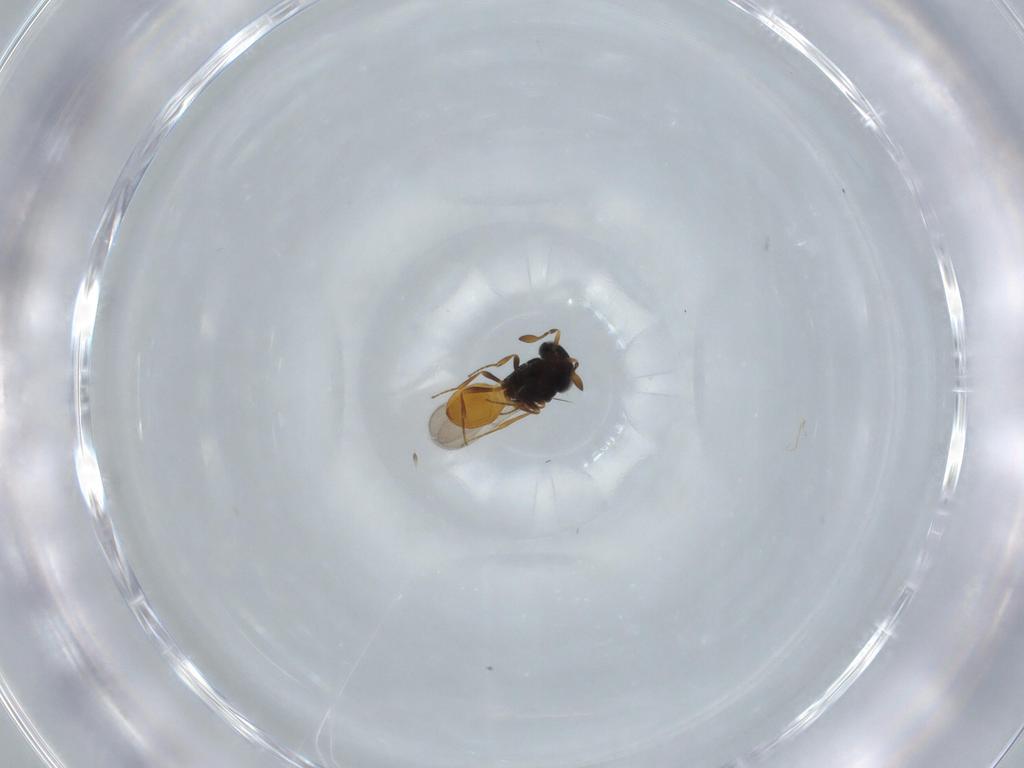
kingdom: Animalia
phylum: Arthropoda
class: Insecta
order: Hymenoptera
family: Scelionidae
